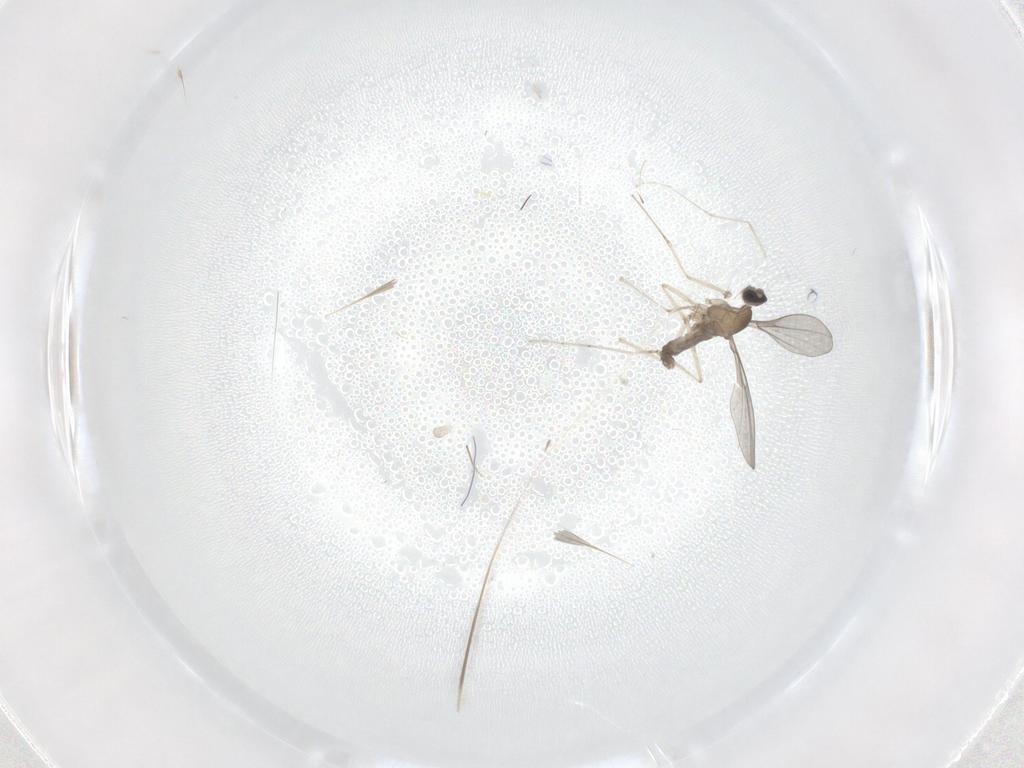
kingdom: Animalia
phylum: Arthropoda
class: Insecta
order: Diptera
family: Cecidomyiidae
